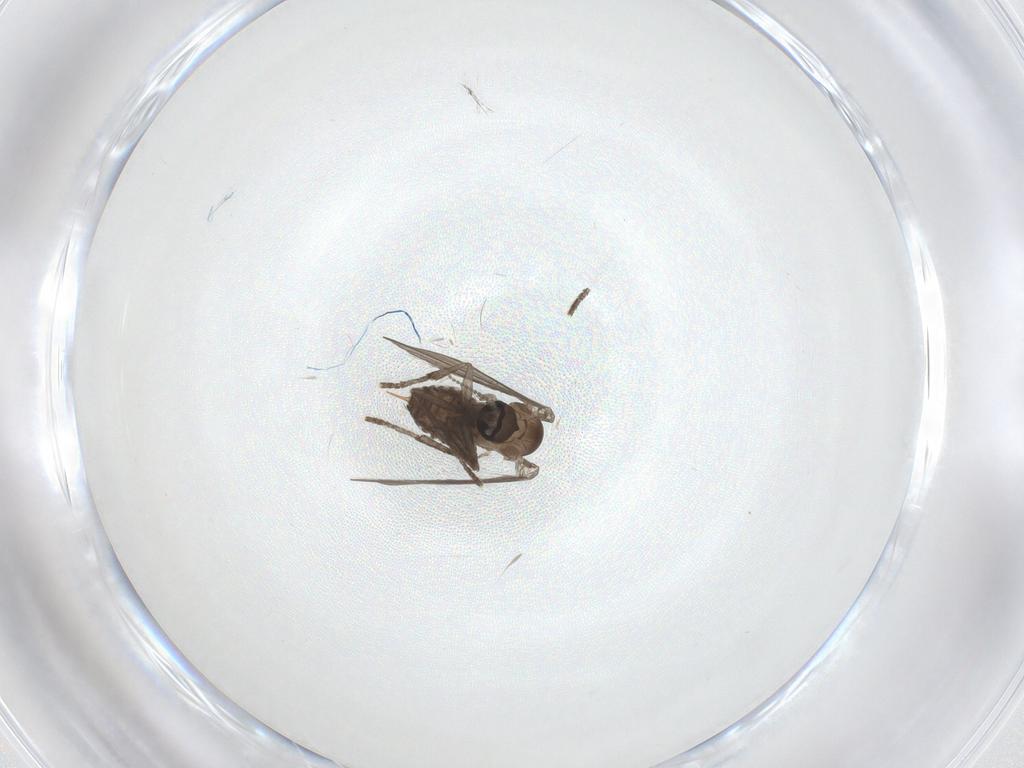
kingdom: Animalia
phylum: Arthropoda
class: Insecta
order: Diptera
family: Psychodidae
